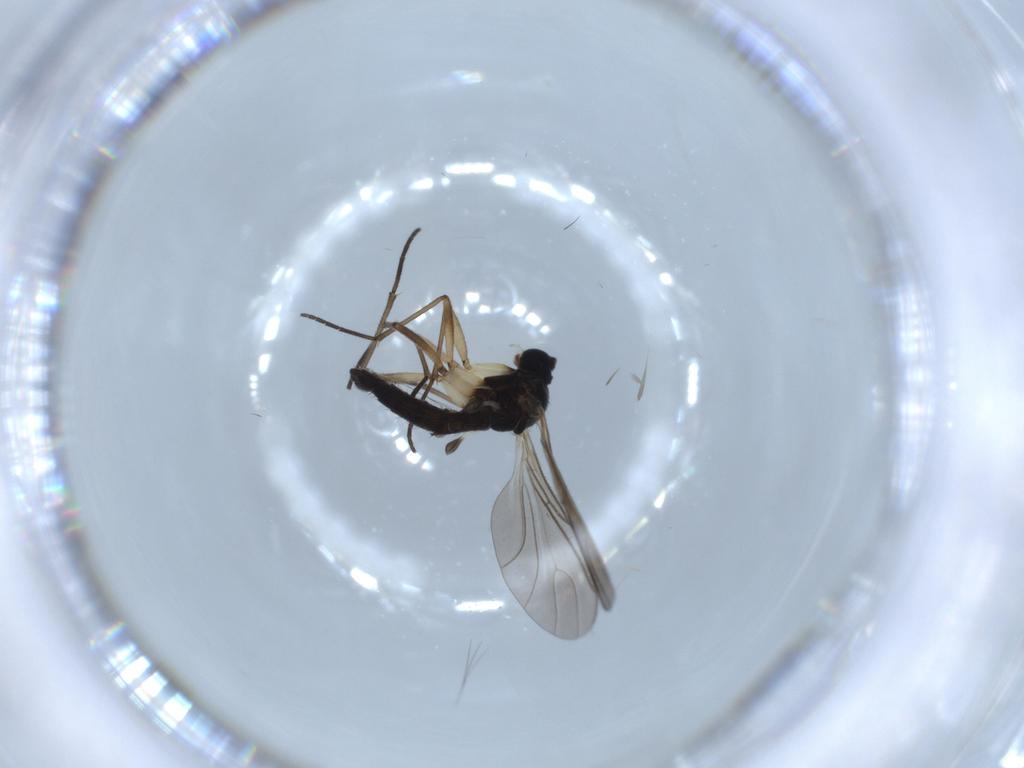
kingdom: Animalia
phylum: Arthropoda
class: Insecta
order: Diptera
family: Sciaridae
